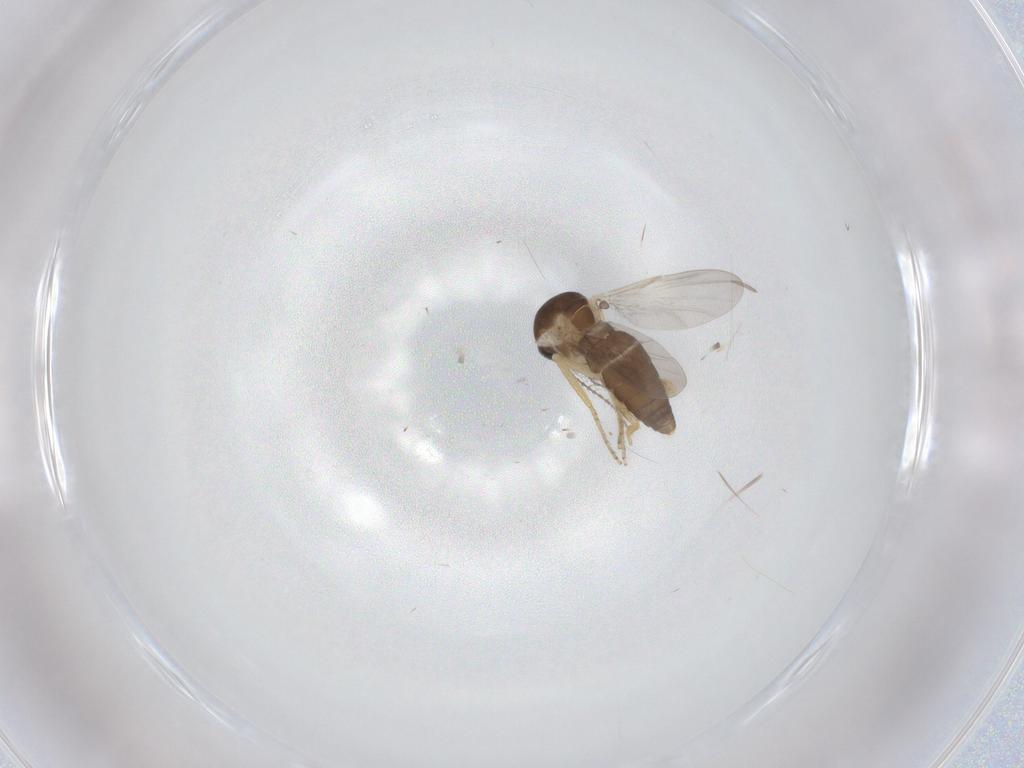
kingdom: Animalia
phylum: Arthropoda
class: Insecta
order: Diptera
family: Ceratopogonidae
